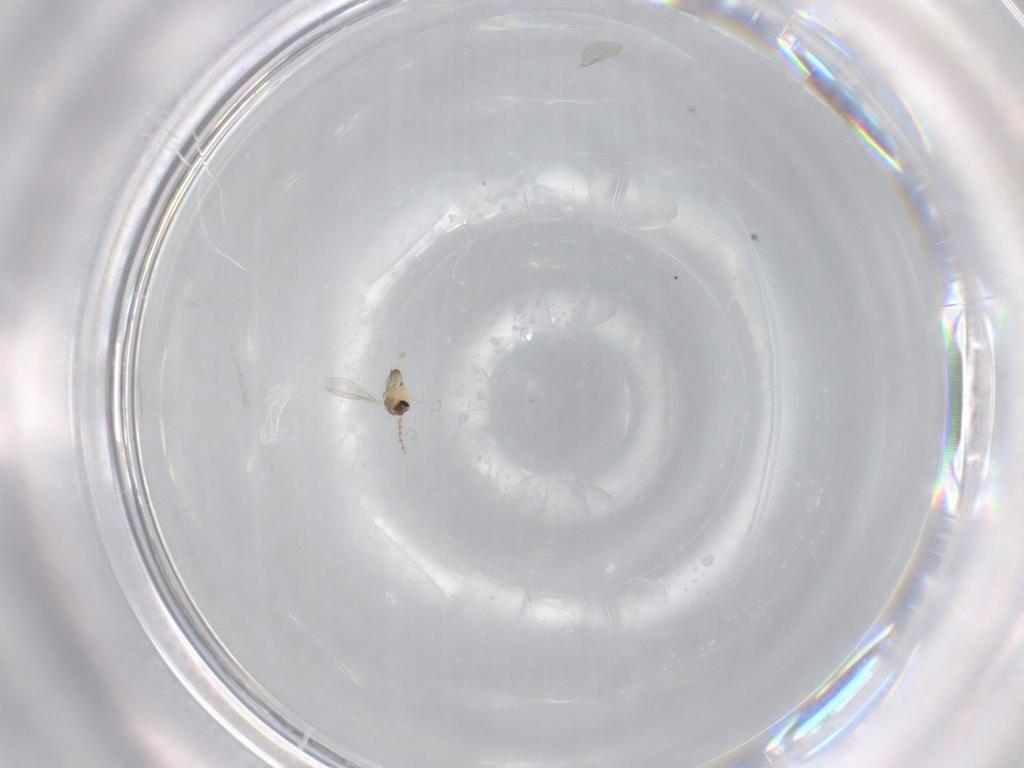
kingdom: Animalia
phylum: Arthropoda
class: Insecta
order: Diptera
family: Cecidomyiidae
